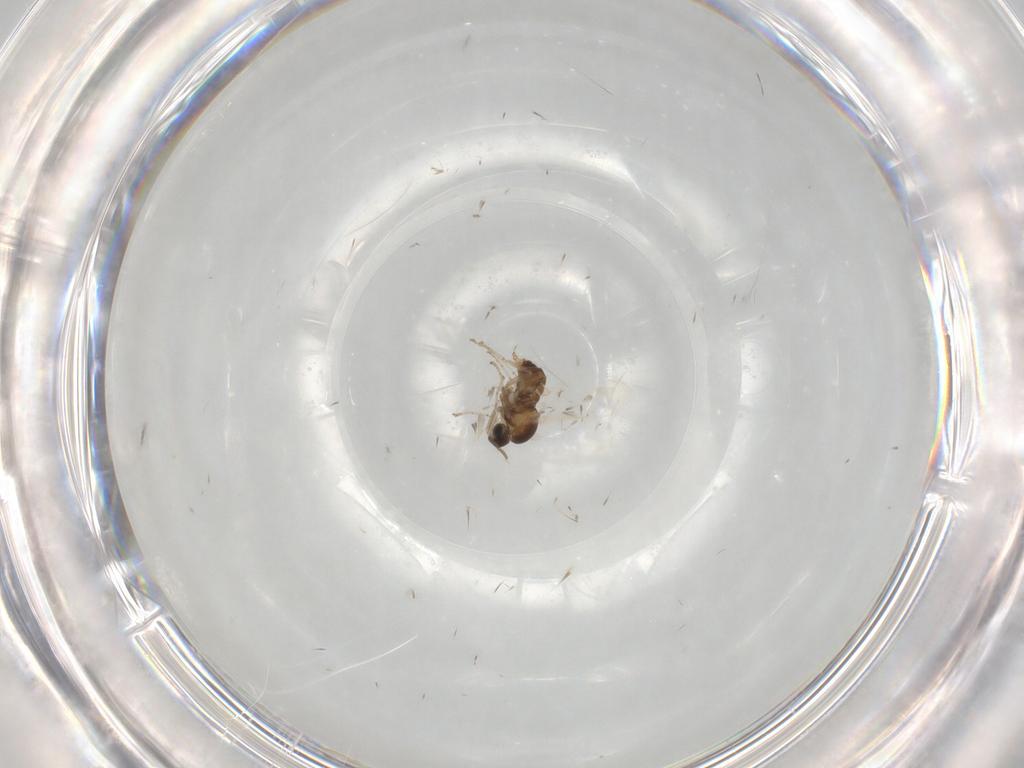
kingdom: Animalia
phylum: Arthropoda
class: Insecta
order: Diptera
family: Cecidomyiidae
